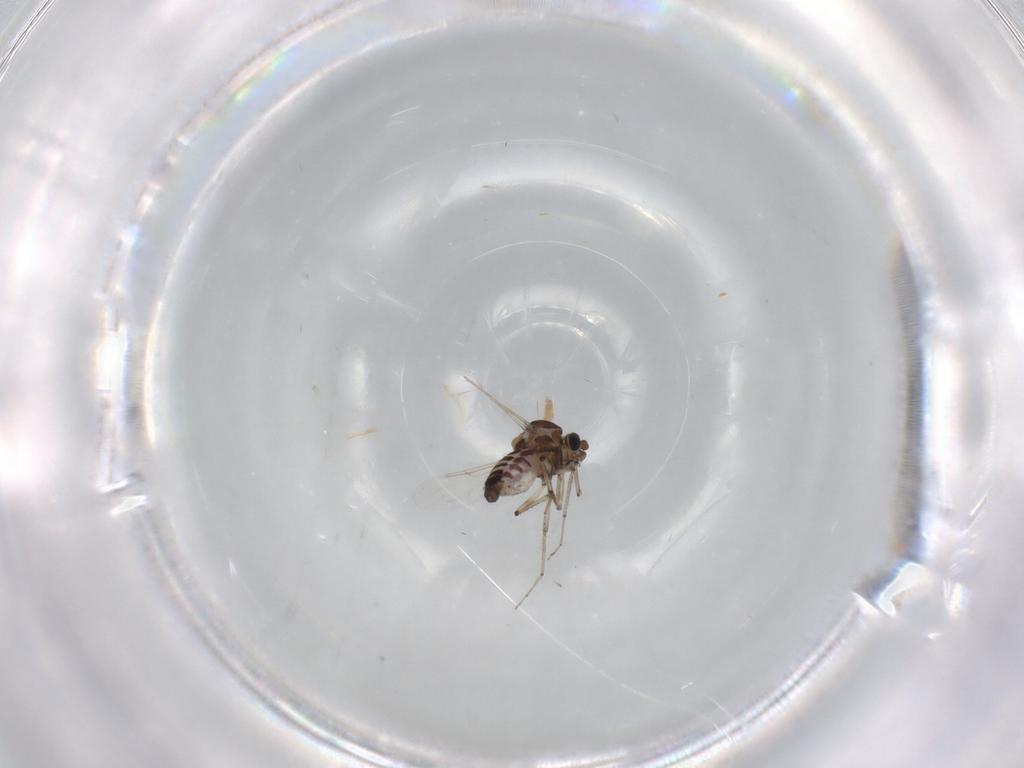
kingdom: Animalia
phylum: Arthropoda
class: Insecta
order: Diptera
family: Ceratopogonidae
